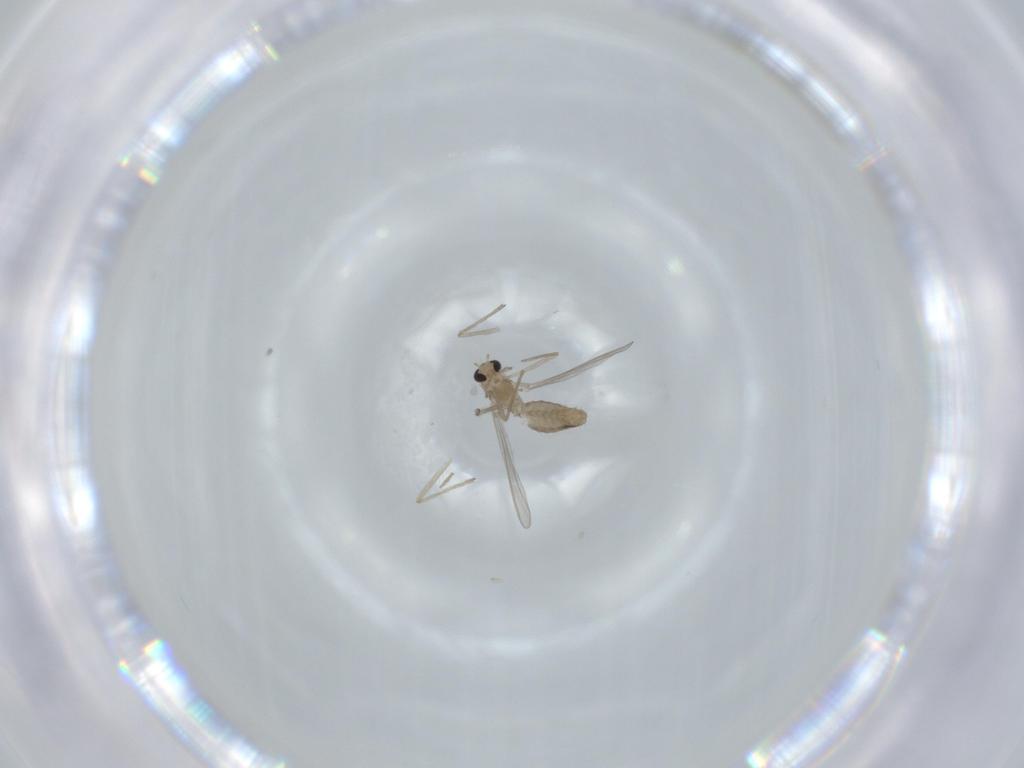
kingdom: Animalia
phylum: Arthropoda
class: Insecta
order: Diptera
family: Chironomidae
